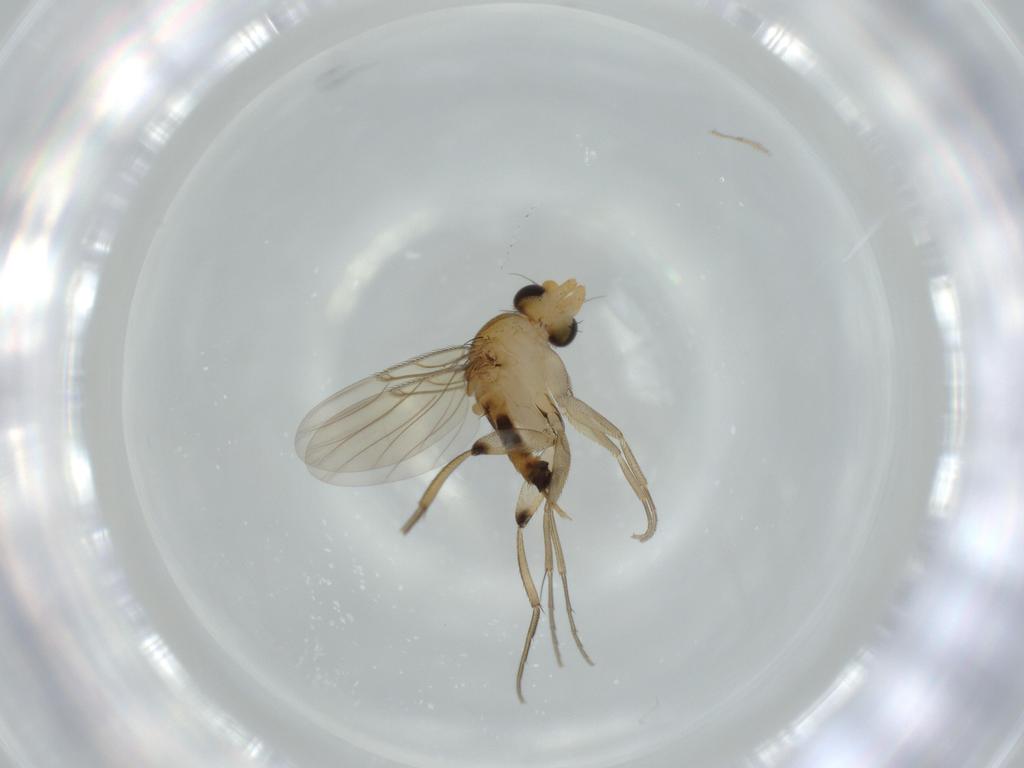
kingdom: Animalia
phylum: Arthropoda
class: Insecta
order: Diptera
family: Phoridae
